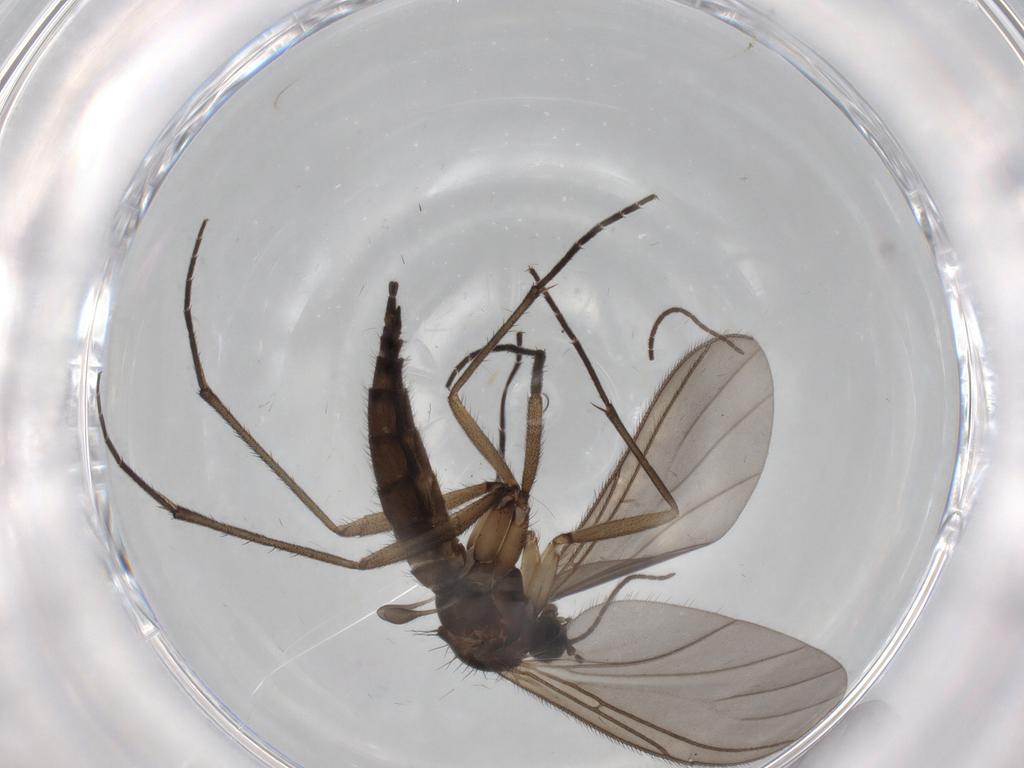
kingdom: Animalia
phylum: Arthropoda
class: Insecta
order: Diptera
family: Sciaridae
